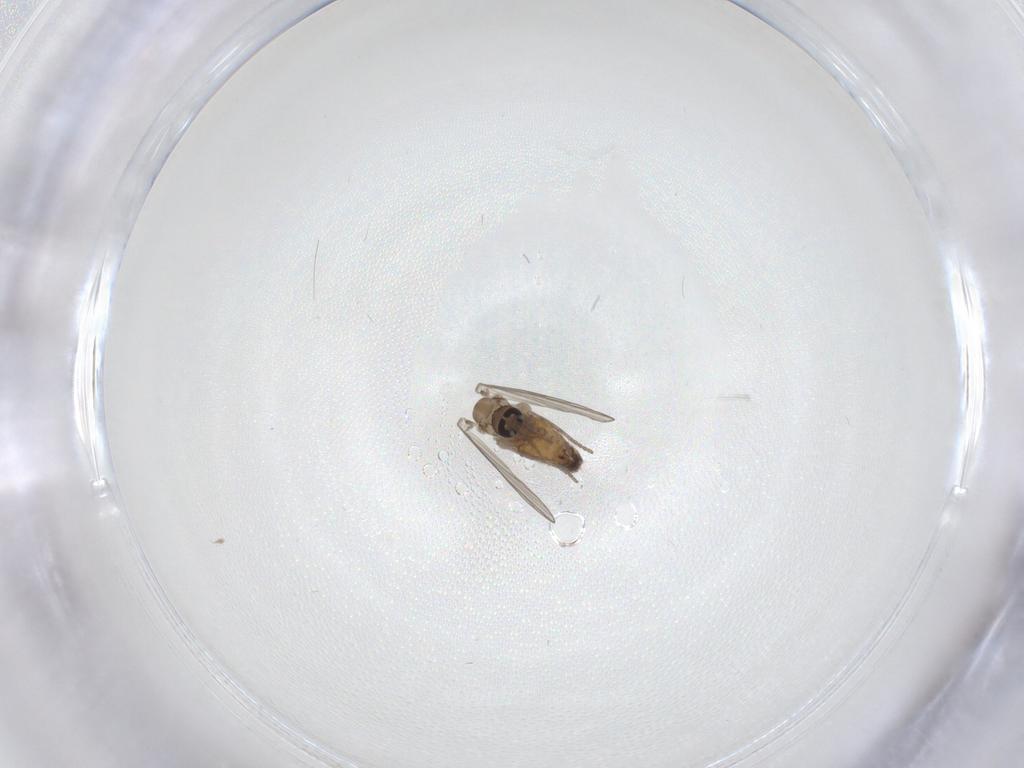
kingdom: Animalia
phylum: Arthropoda
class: Insecta
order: Diptera
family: Psychodidae
